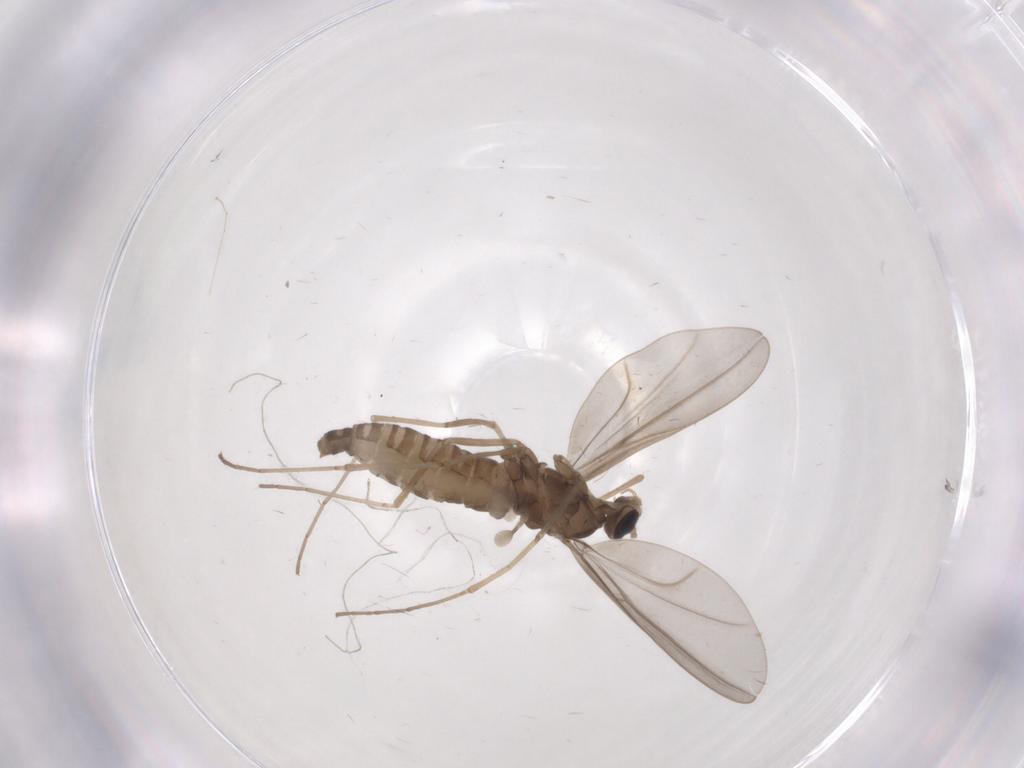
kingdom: Animalia
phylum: Arthropoda
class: Insecta
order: Diptera
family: Cecidomyiidae
